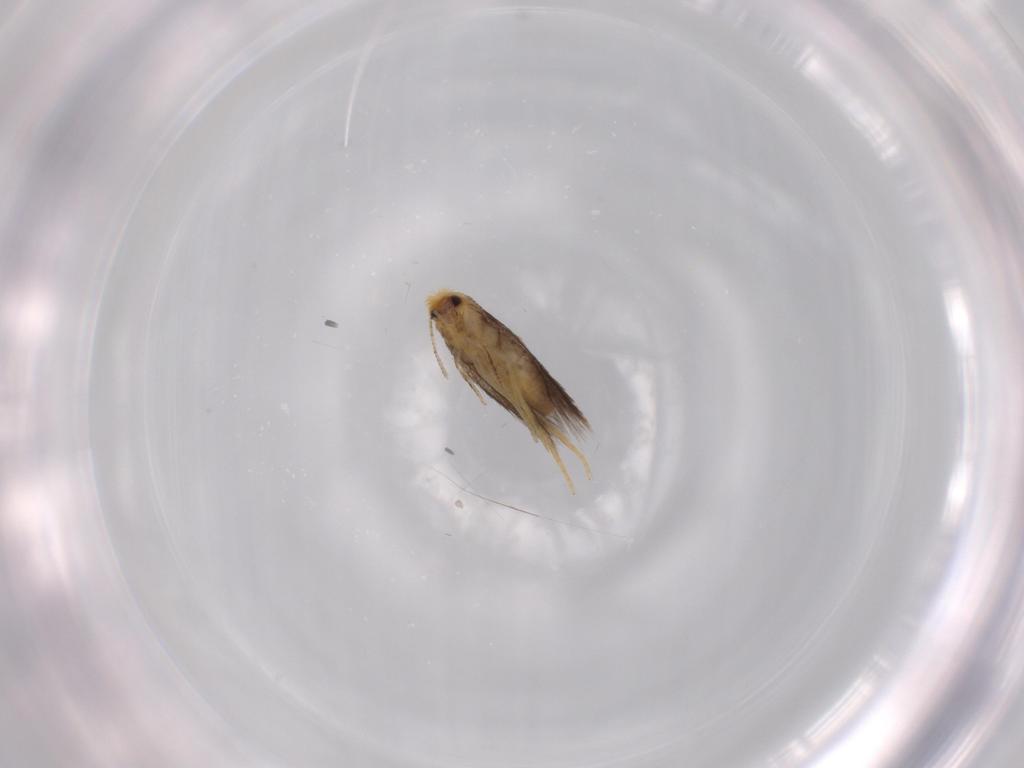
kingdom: Animalia
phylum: Arthropoda
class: Insecta
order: Lepidoptera
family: Nepticulidae
